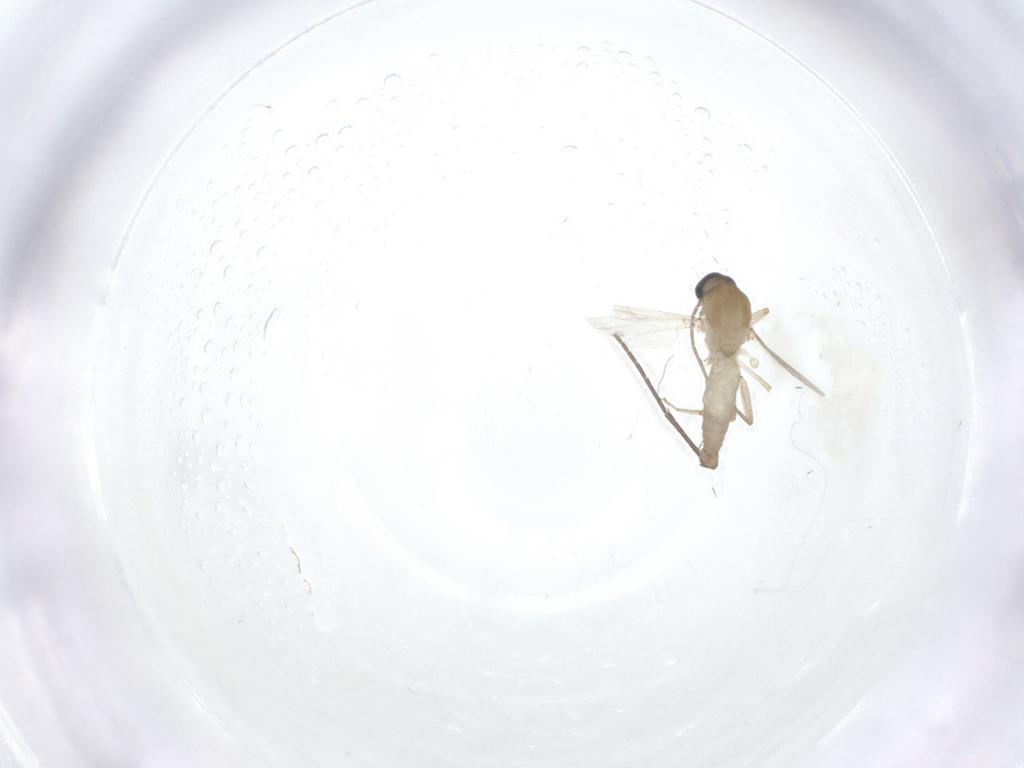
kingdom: Animalia
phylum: Arthropoda
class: Insecta
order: Diptera
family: Sciaridae
